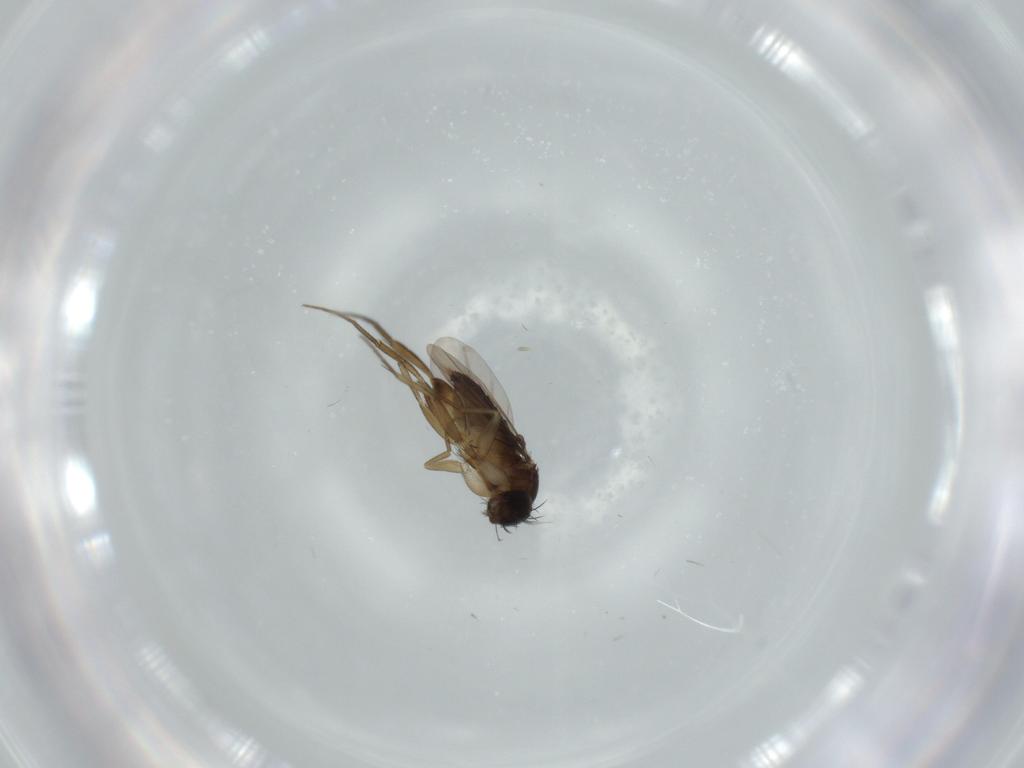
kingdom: Animalia
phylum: Arthropoda
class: Insecta
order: Diptera
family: Phoridae
